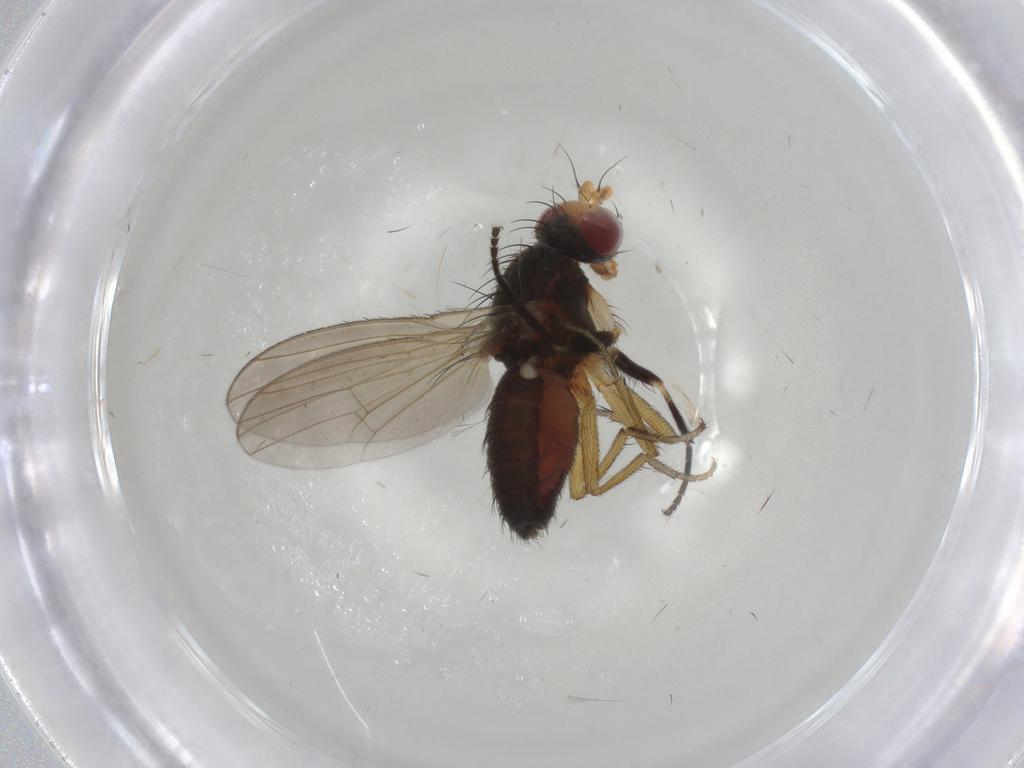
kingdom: Animalia
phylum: Arthropoda
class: Insecta
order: Diptera
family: Heleomyzidae
